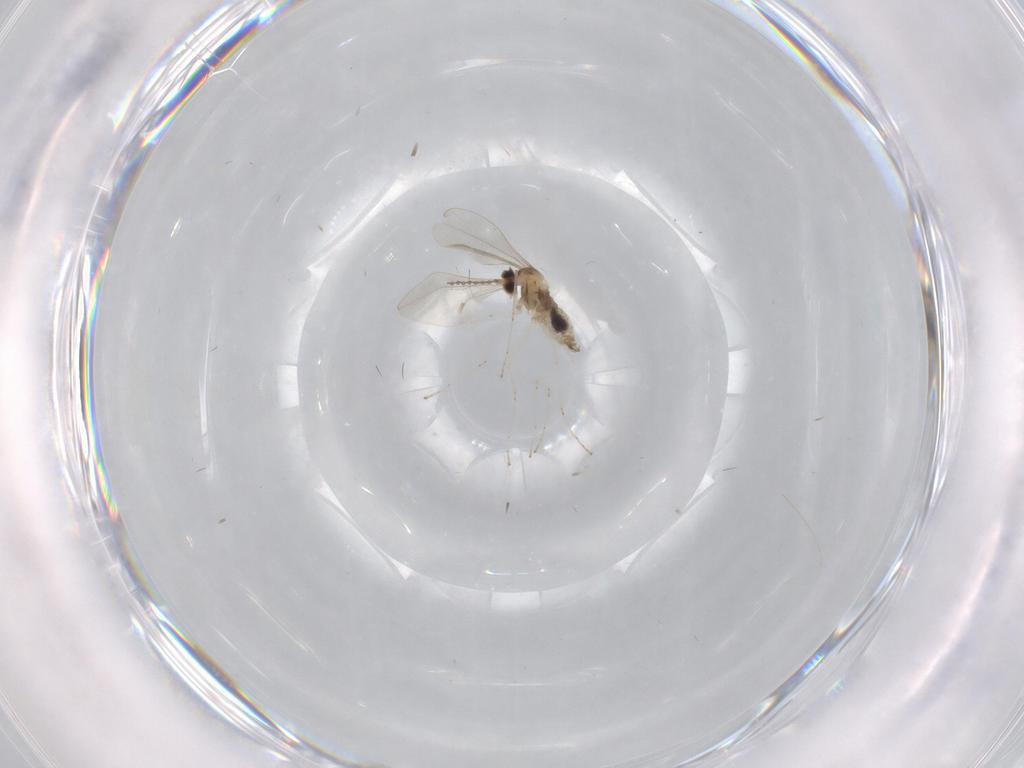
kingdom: Animalia
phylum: Arthropoda
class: Insecta
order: Diptera
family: Cecidomyiidae
